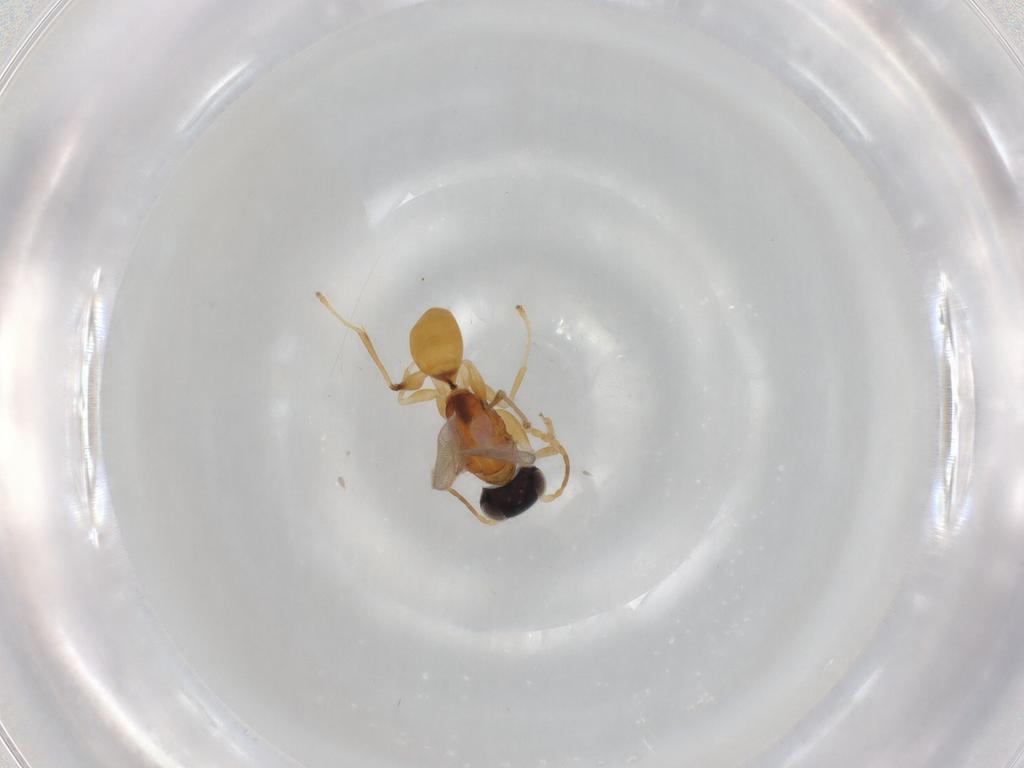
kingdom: Animalia
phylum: Arthropoda
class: Insecta
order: Hymenoptera
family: Dryinidae
